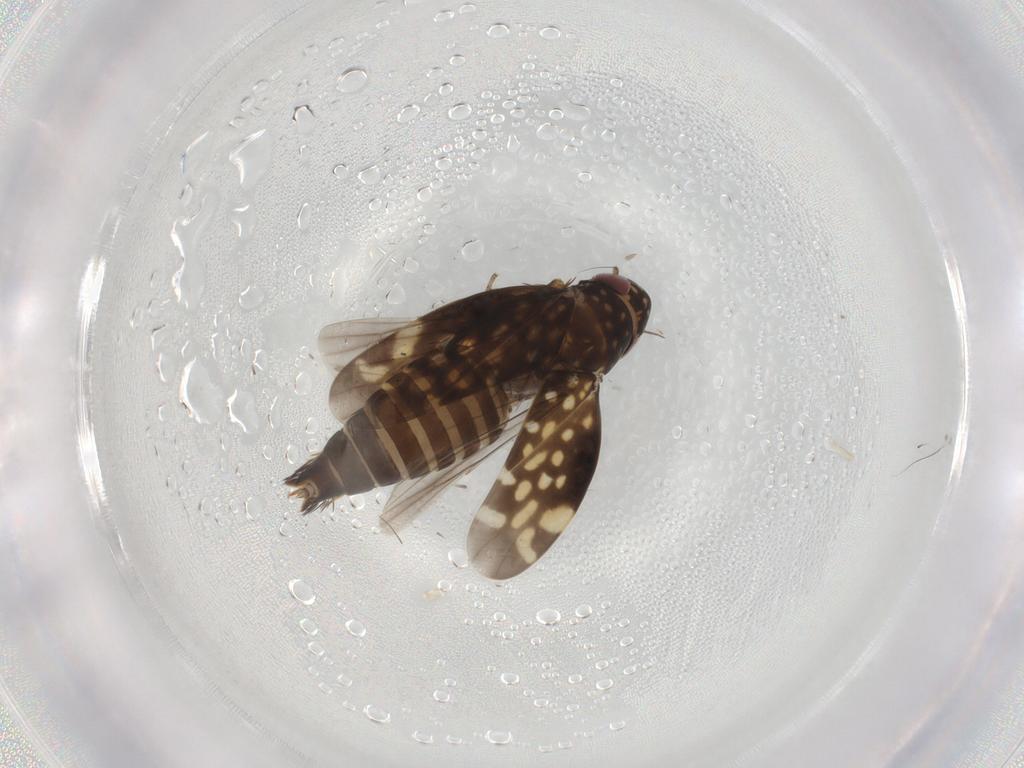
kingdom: Animalia
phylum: Arthropoda
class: Insecta
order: Hemiptera
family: Cicadellidae
